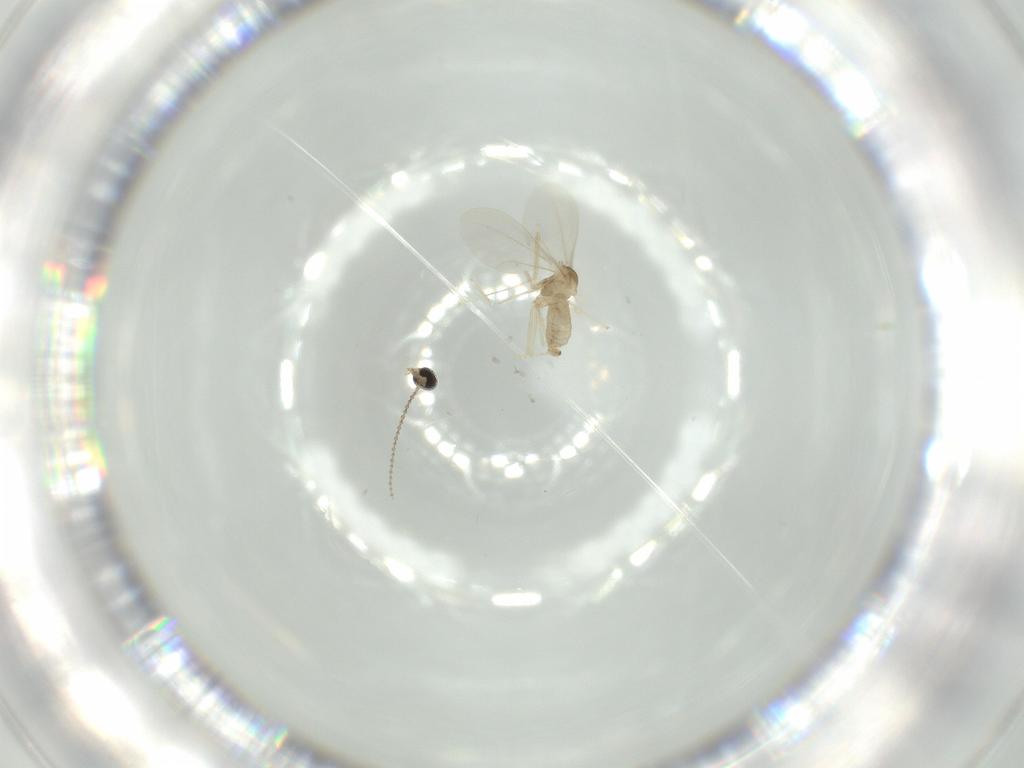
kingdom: Animalia
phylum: Arthropoda
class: Insecta
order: Diptera
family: Cecidomyiidae
